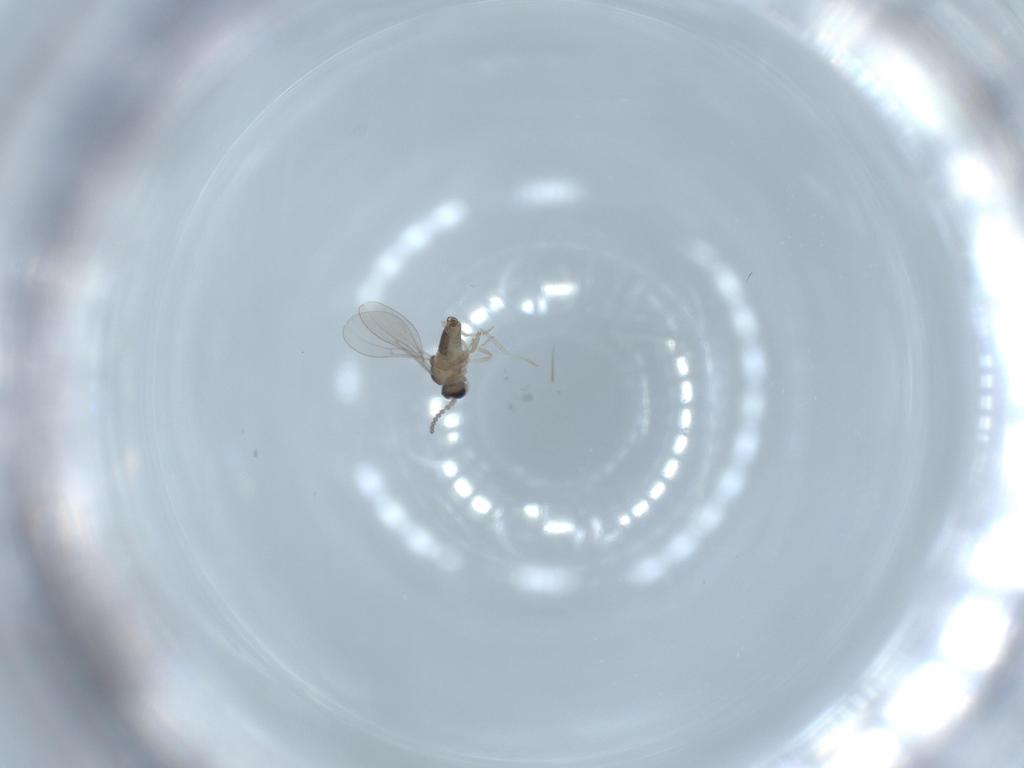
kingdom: Animalia
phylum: Arthropoda
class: Insecta
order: Diptera
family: Cecidomyiidae
